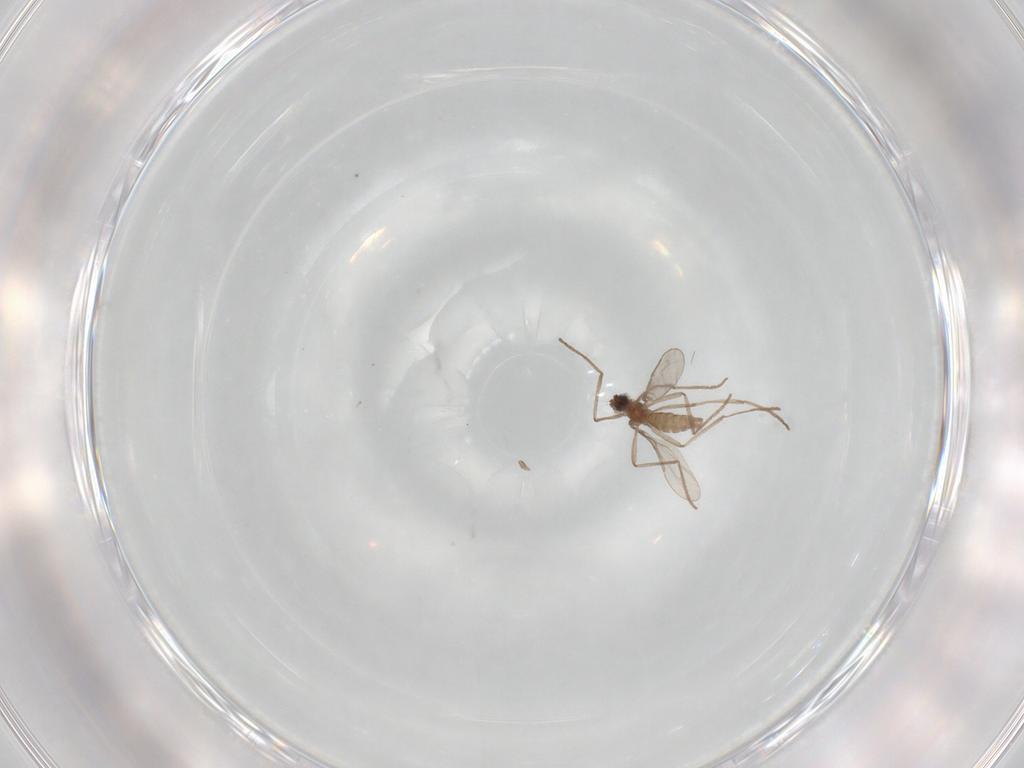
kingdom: Animalia
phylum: Arthropoda
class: Insecta
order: Diptera
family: Cecidomyiidae
